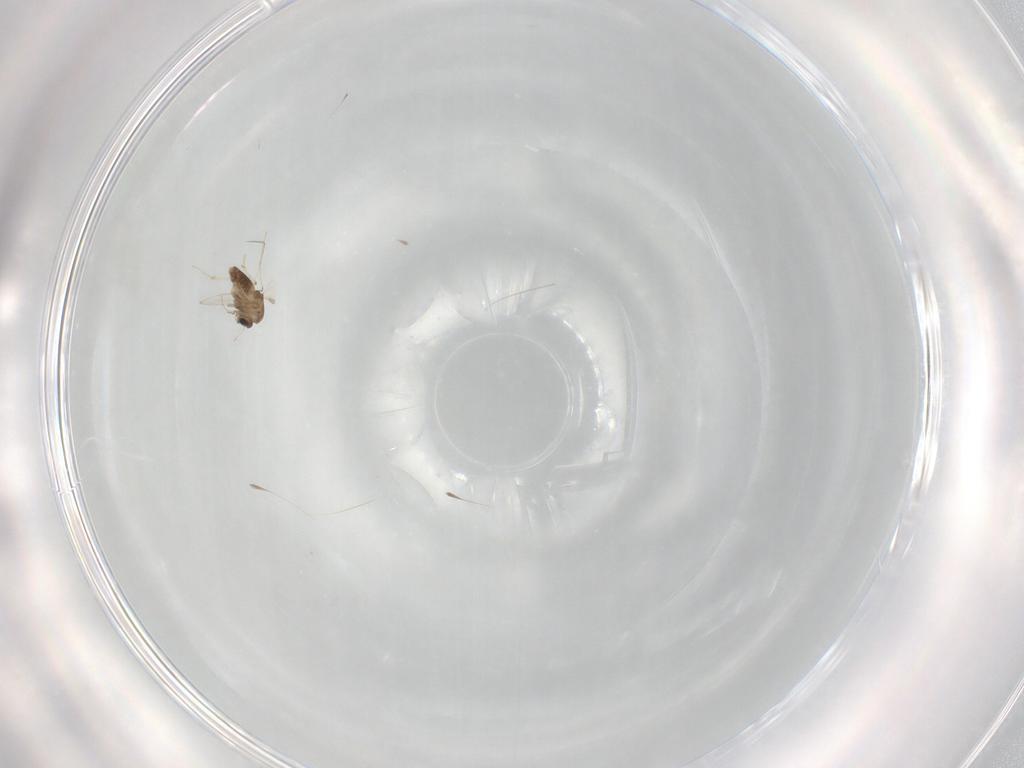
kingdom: Animalia
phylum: Arthropoda
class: Insecta
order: Diptera
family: Chironomidae
